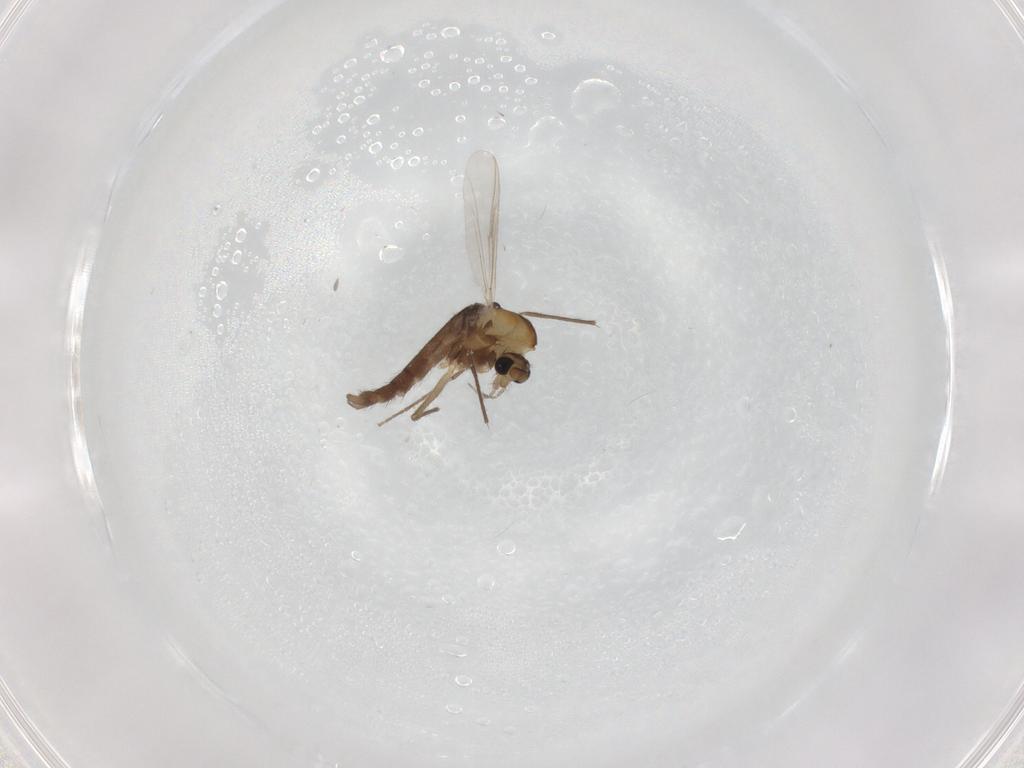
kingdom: Animalia
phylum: Arthropoda
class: Insecta
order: Diptera
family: Chironomidae
